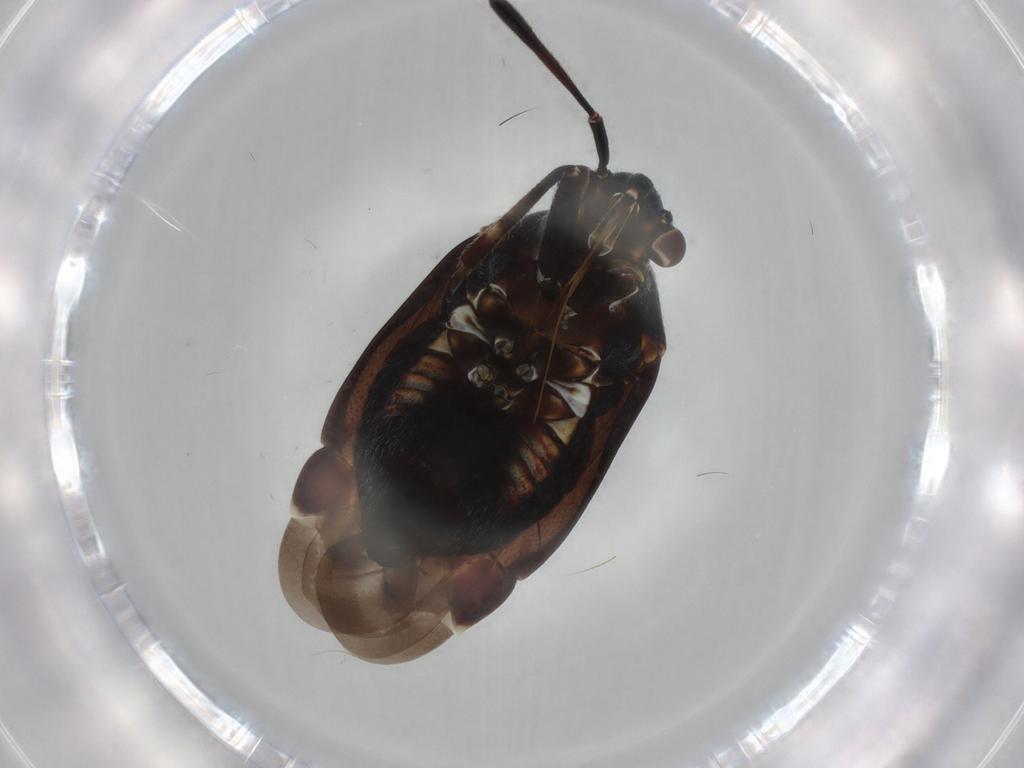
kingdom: Animalia
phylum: Arthropoda
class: Insecta
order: Hemiptera
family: Miridae
